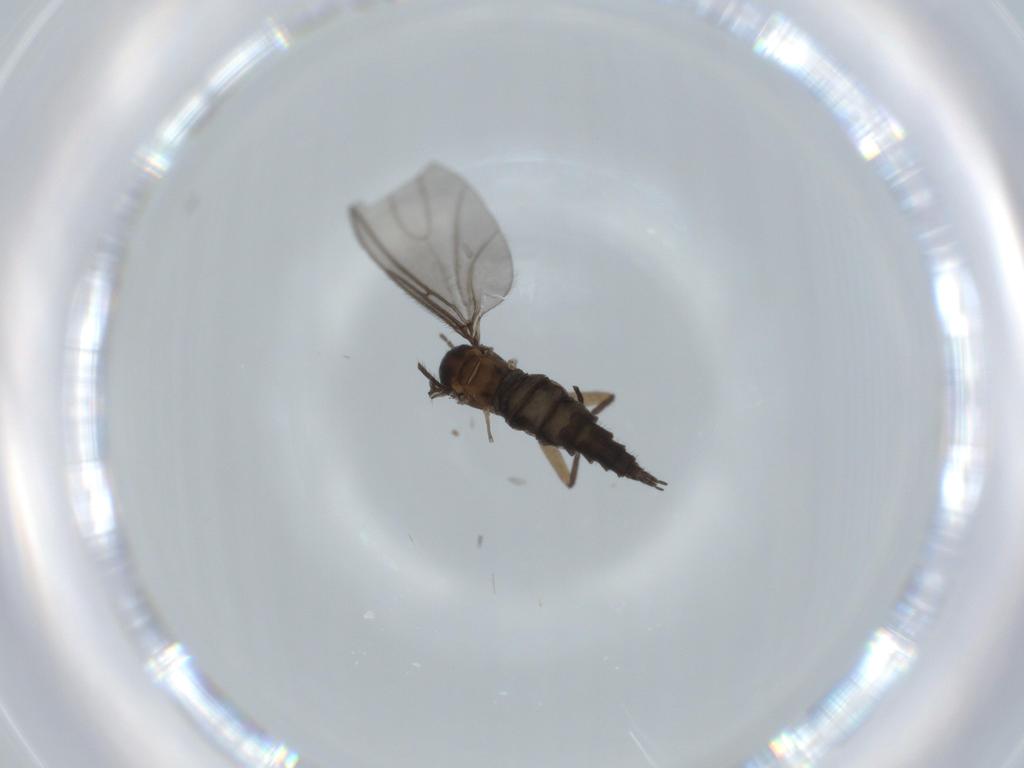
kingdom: Animalia
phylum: Arthropoda
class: Insecta
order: Diptera
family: Sciaridae
